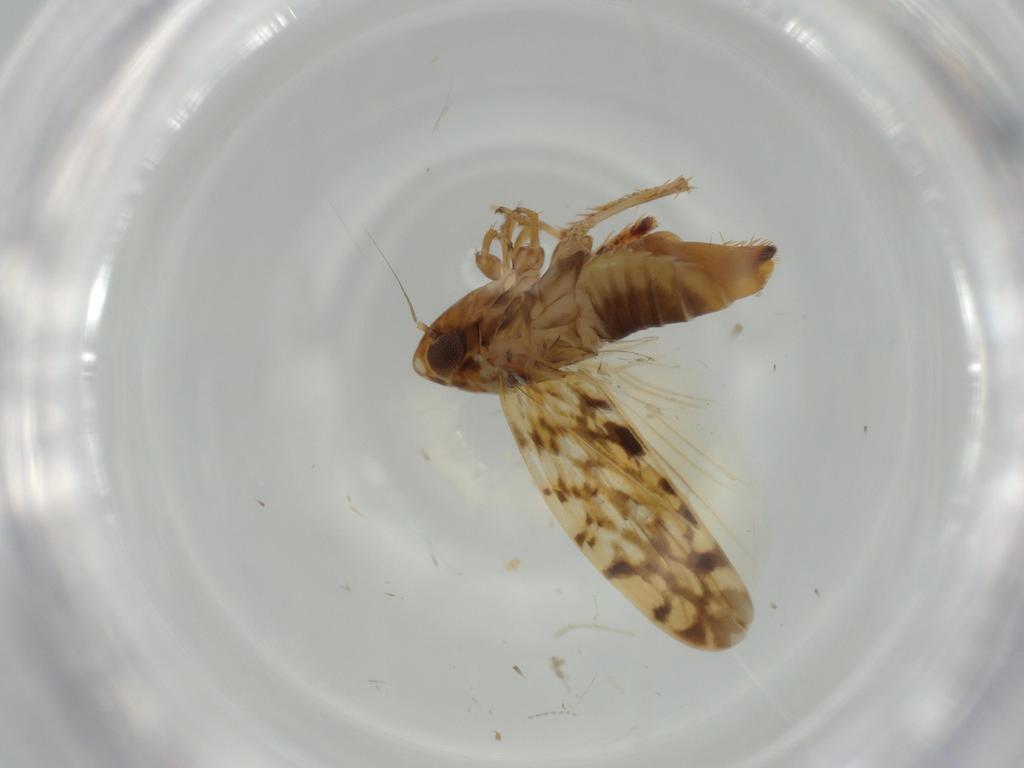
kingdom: Animalia
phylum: Arthropoda
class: Insecta
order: Hemiptera
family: Cicadellidae
